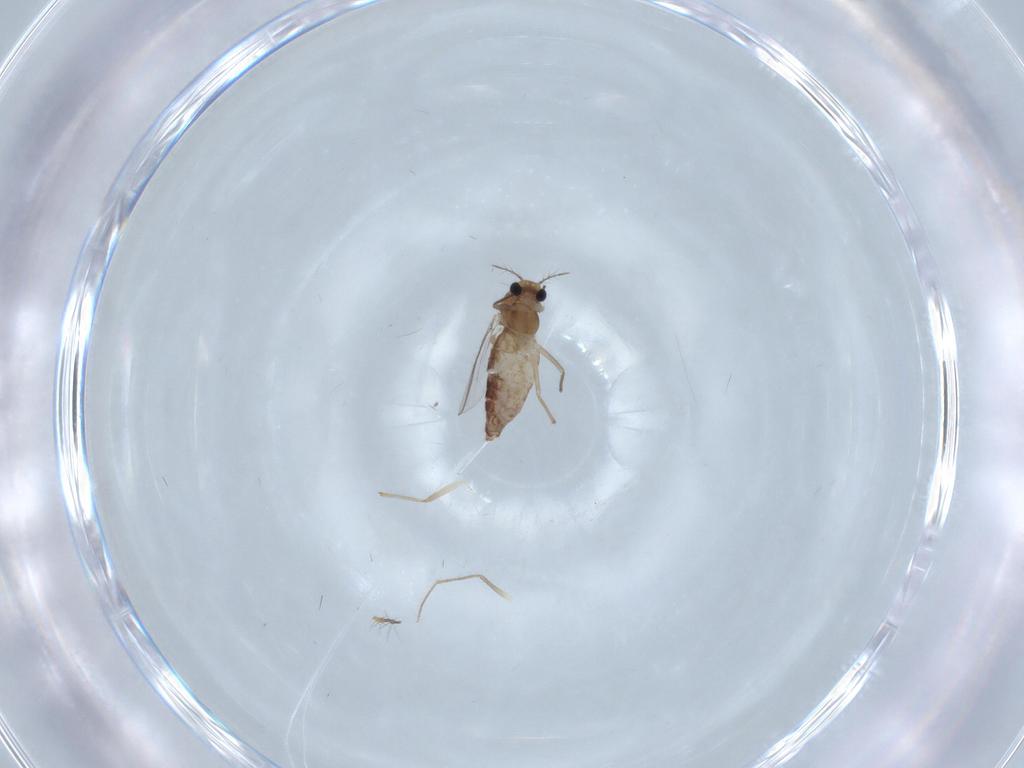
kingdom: Animalia
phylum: Arthropoda
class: Insecta
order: Diptera
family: Chironomidae
